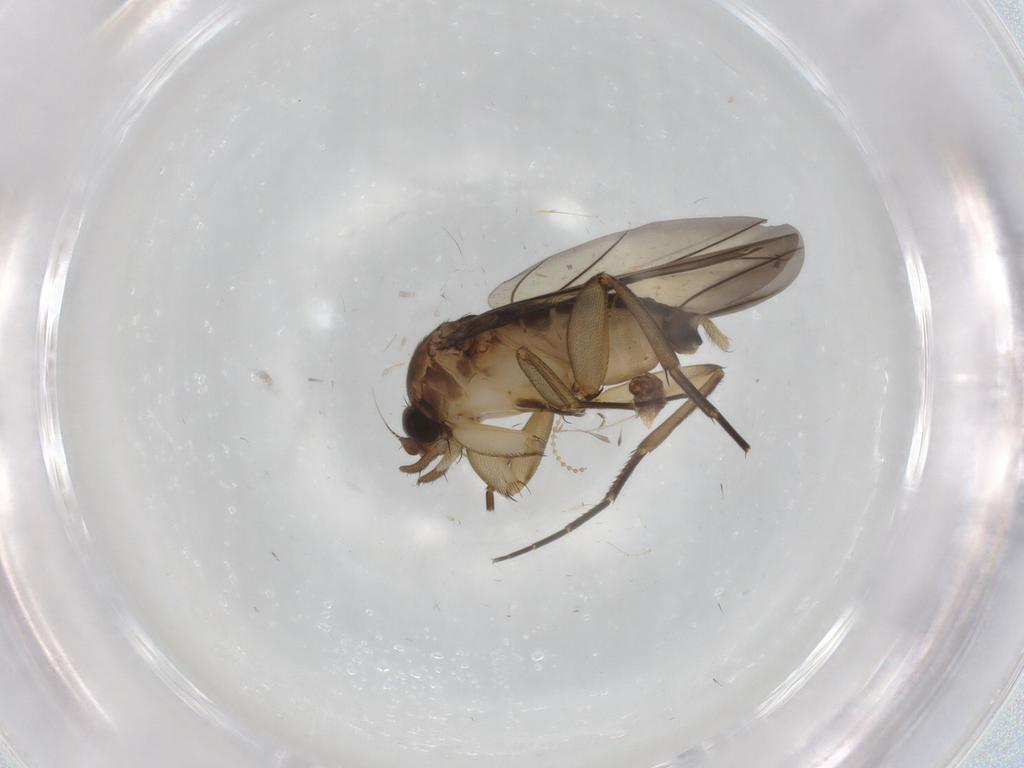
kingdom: Animalia
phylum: Arthropoda
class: Insecta
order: Diptera
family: Phoridae
